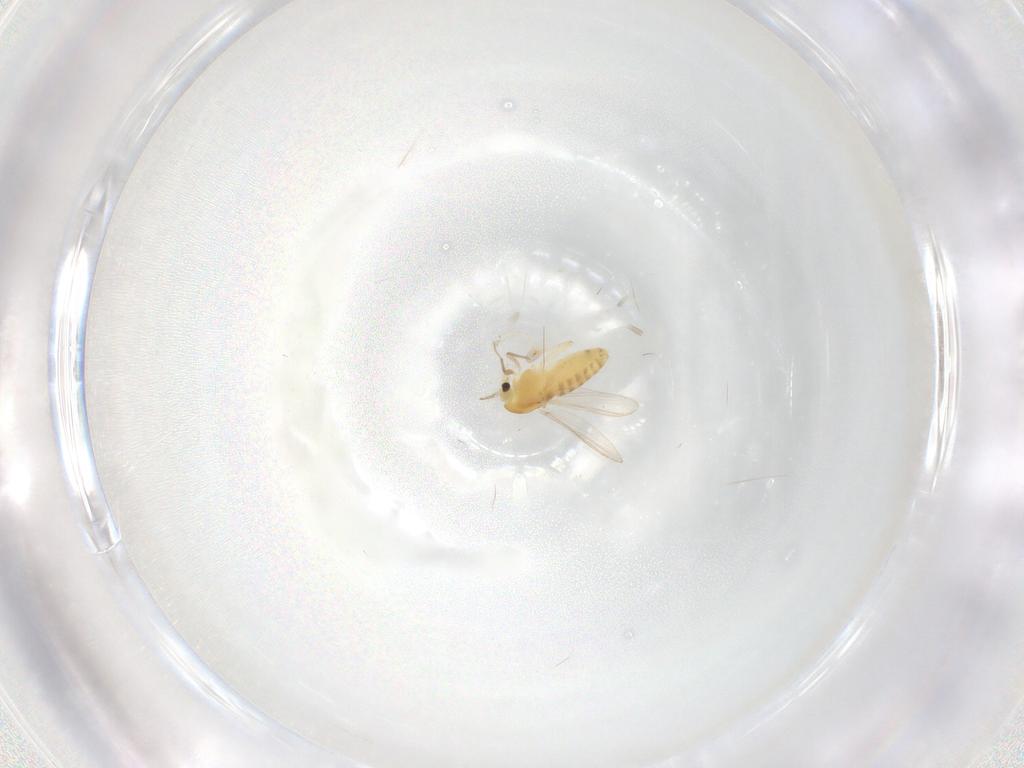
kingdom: Animalia
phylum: Arthropoda
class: Insecta
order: Diptera
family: Chironomidae
